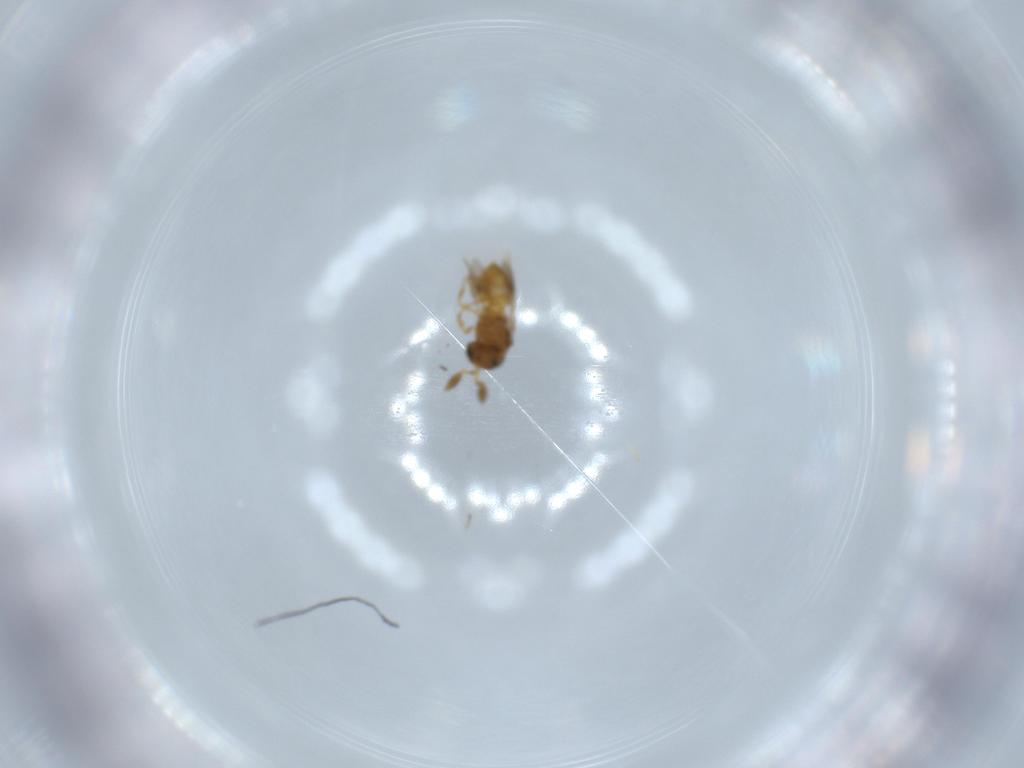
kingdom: Animalia
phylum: Arthropoda
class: Insecta
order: Hymenoptera
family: Scelionidae
